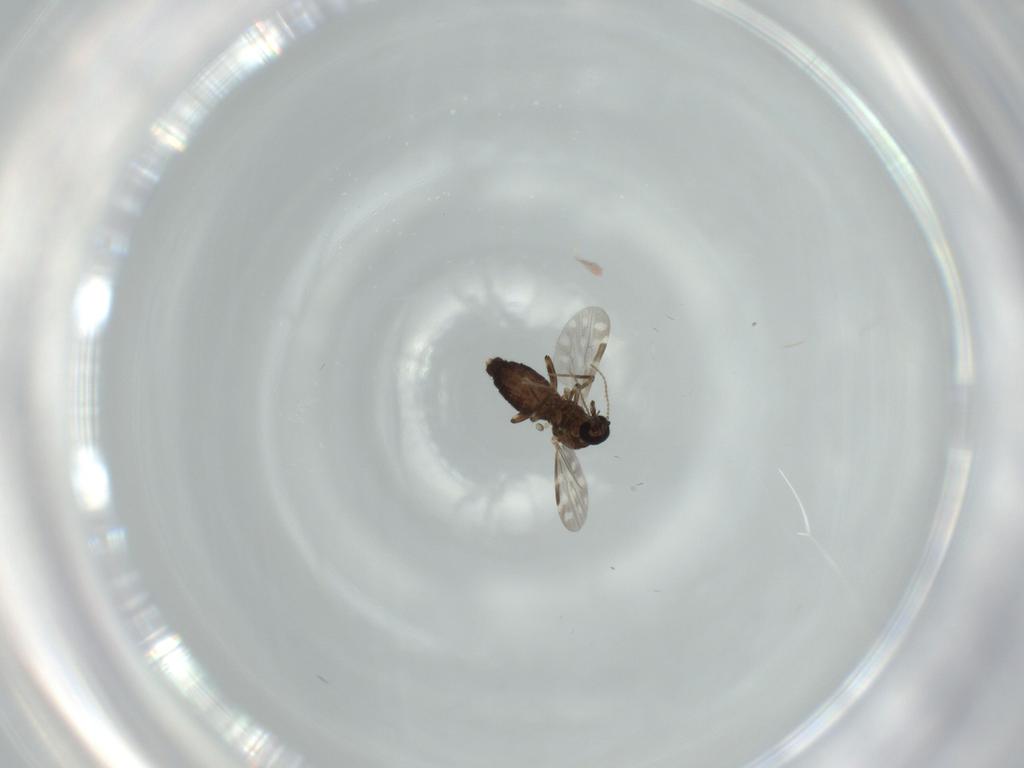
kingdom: Animalia
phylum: Arthropoda
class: Insecta
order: Diptera
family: Ceratopogonidae
